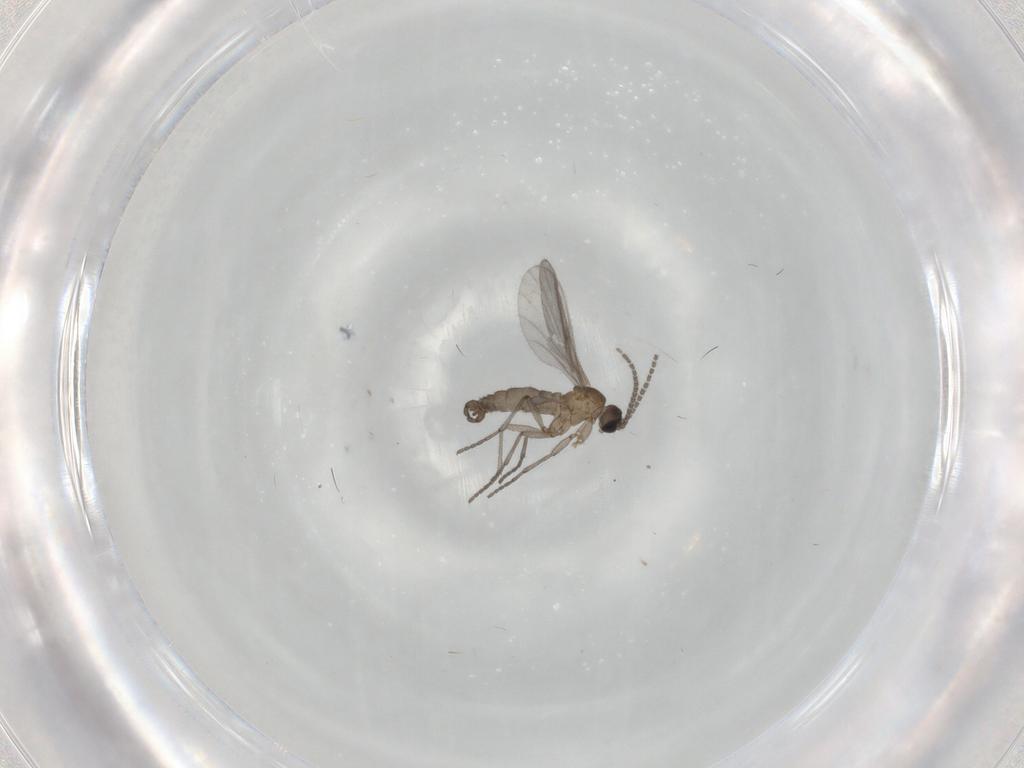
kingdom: Animalia
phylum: Arthropoda
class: Insecta
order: Diptera
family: Sciaridae
